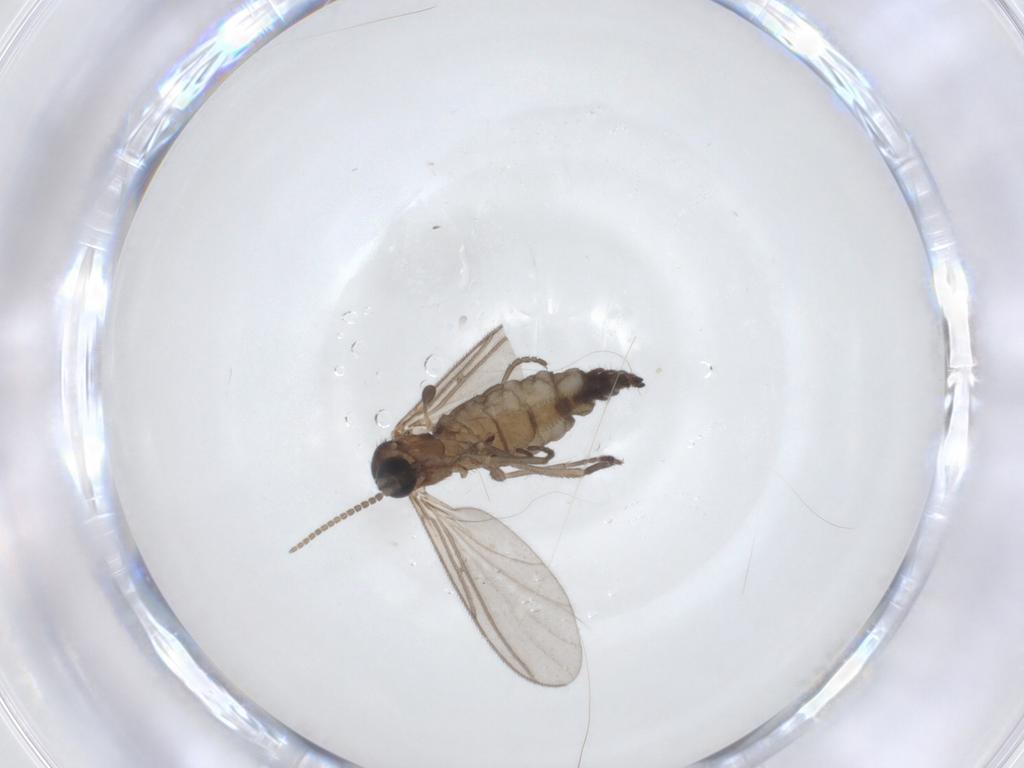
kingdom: Animalia
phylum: Arthropoda
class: Insecta
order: Diptera
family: Sciaridae
